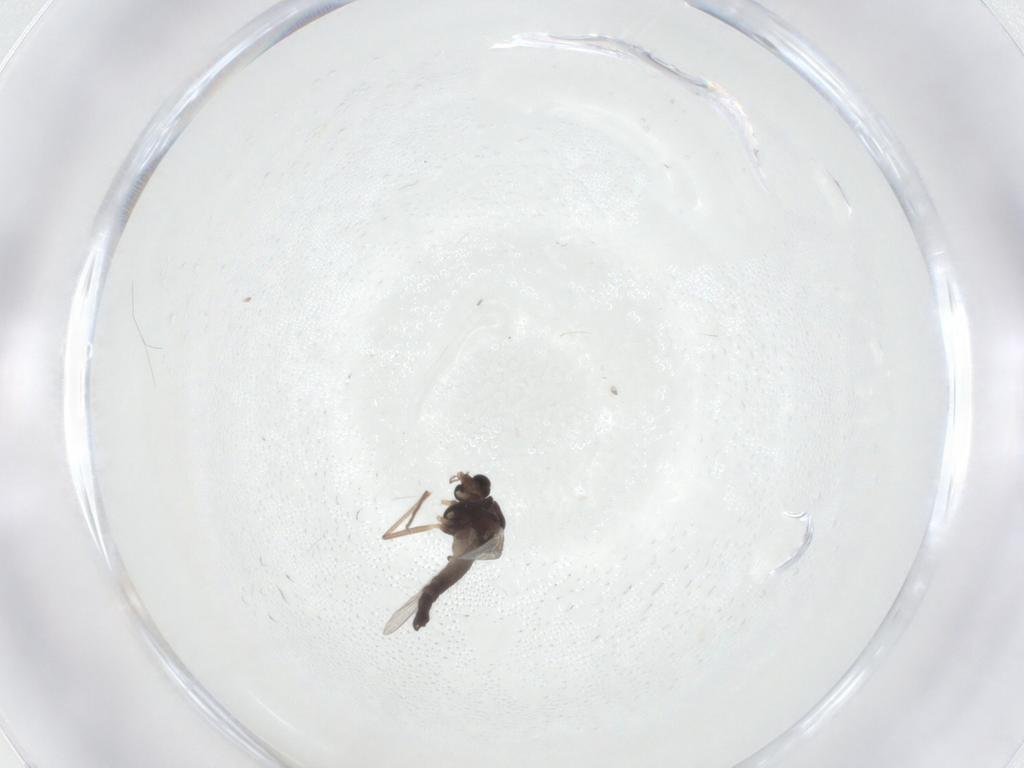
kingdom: Animalia
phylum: Arthropoda
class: Insecta
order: Diptera
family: Chironomidae
